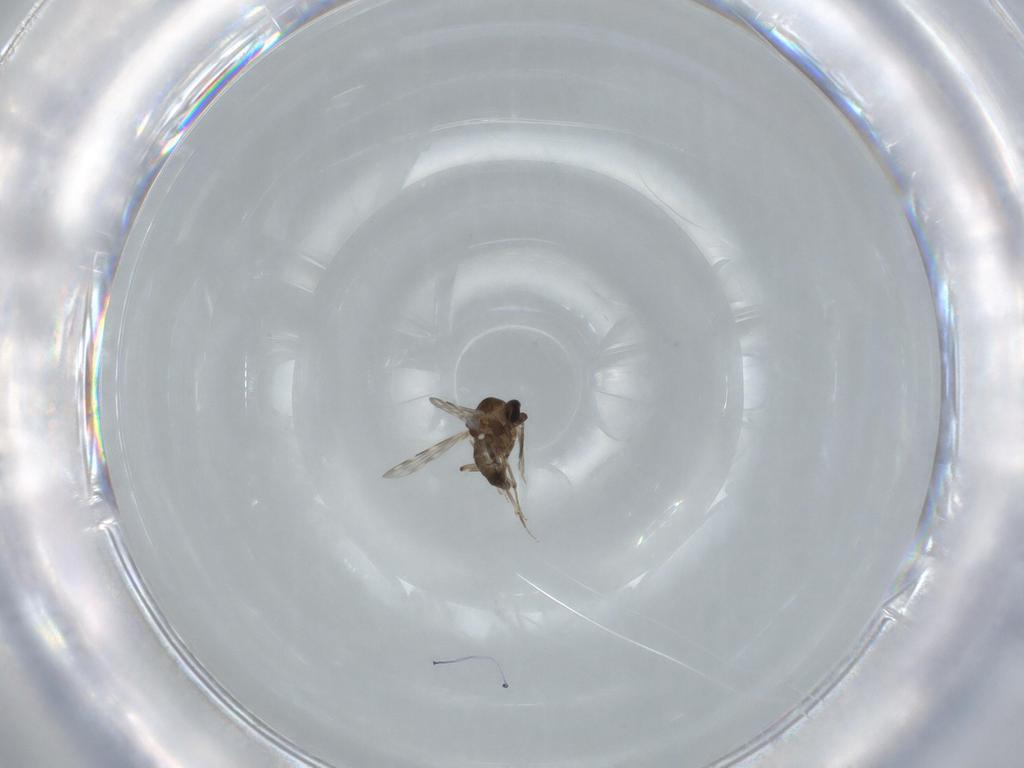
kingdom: Animalia
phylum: Arthropoda
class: Insecta
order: Diptera
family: Ceratopogonidae
